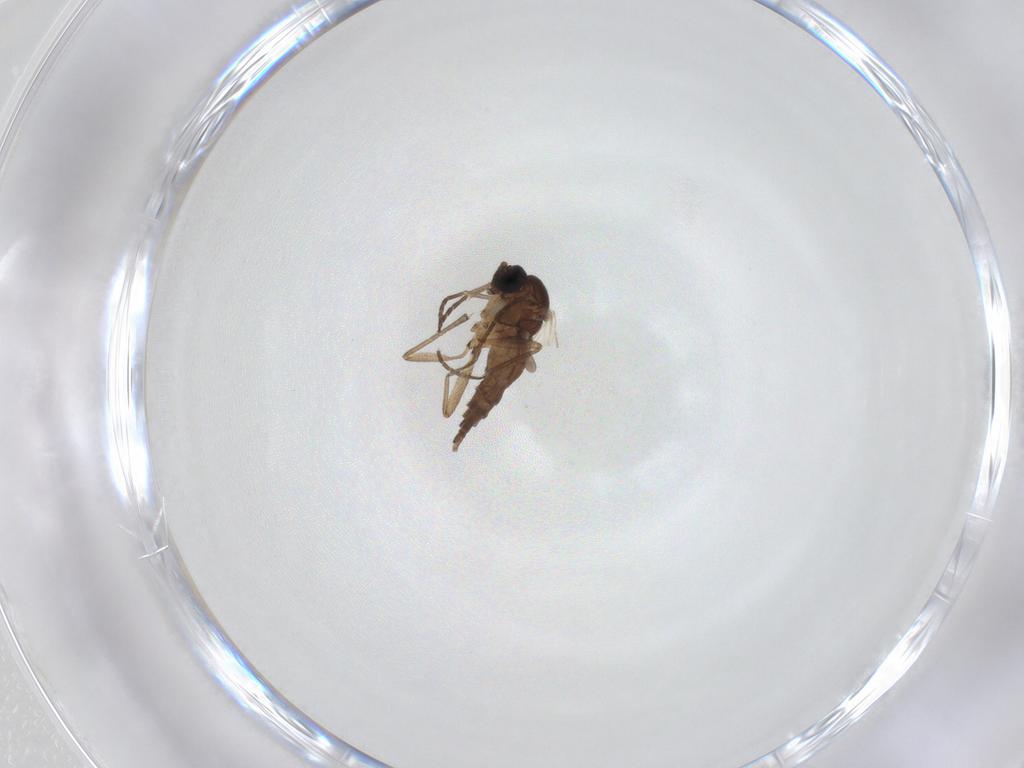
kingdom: Animalia
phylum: Arthropoda
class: Insecta
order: Diptera
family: Sciaridae
